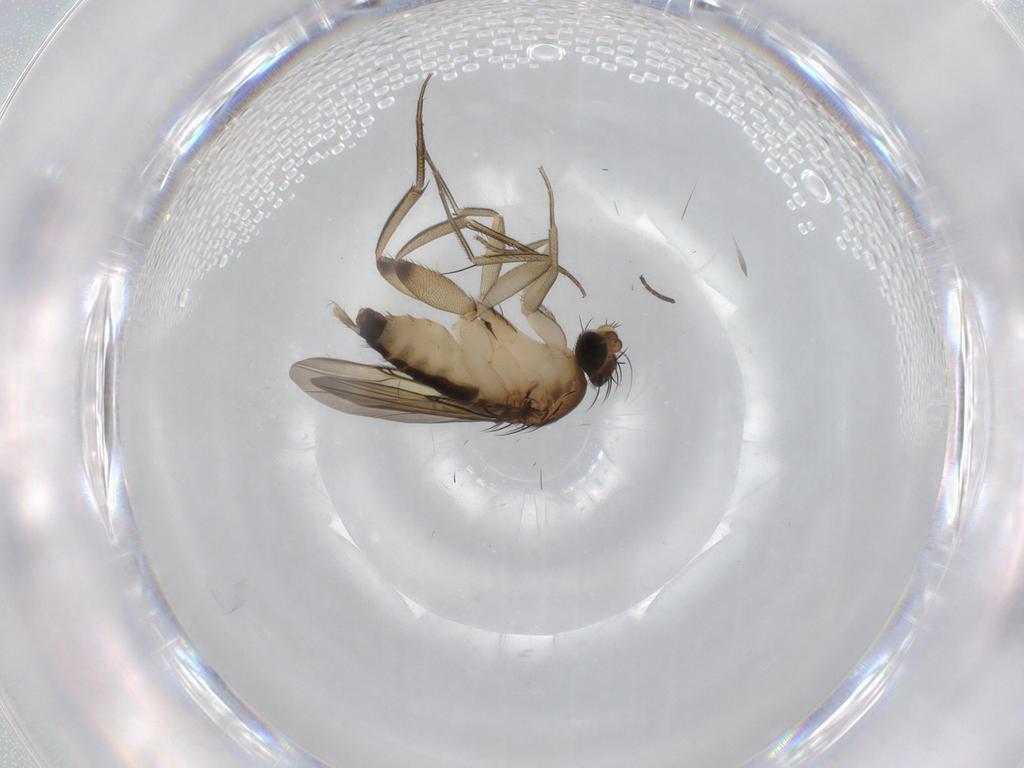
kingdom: Animalia
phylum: Arthropoda
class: Insecta
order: Diptera
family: Phoridae
